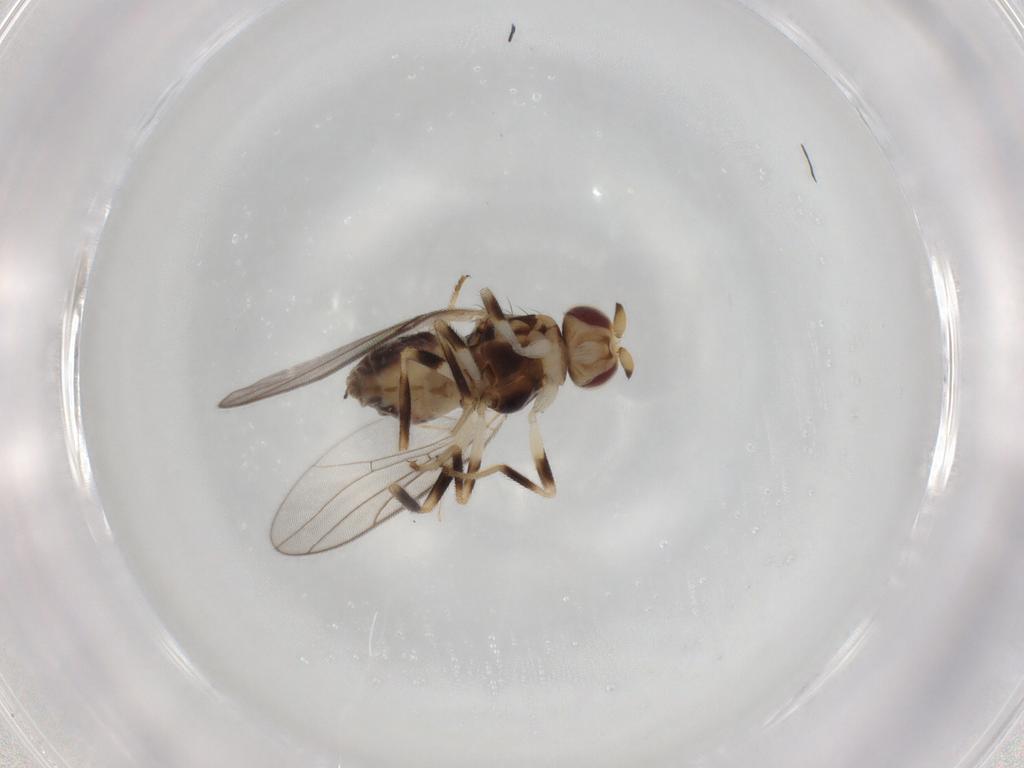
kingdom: Animalia
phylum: Arthropoda
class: Insecta
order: Diptera
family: Chloropidae
